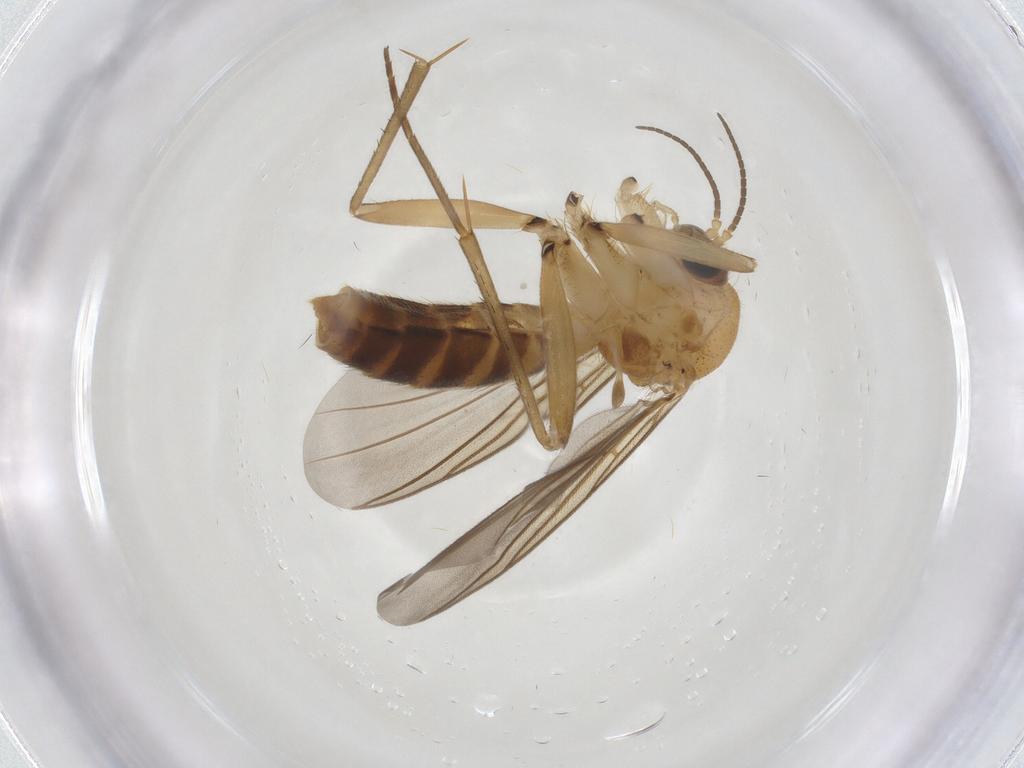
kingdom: Animalia
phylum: Arthropoda
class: Insecta
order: Diptera
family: Mycetophilidae
